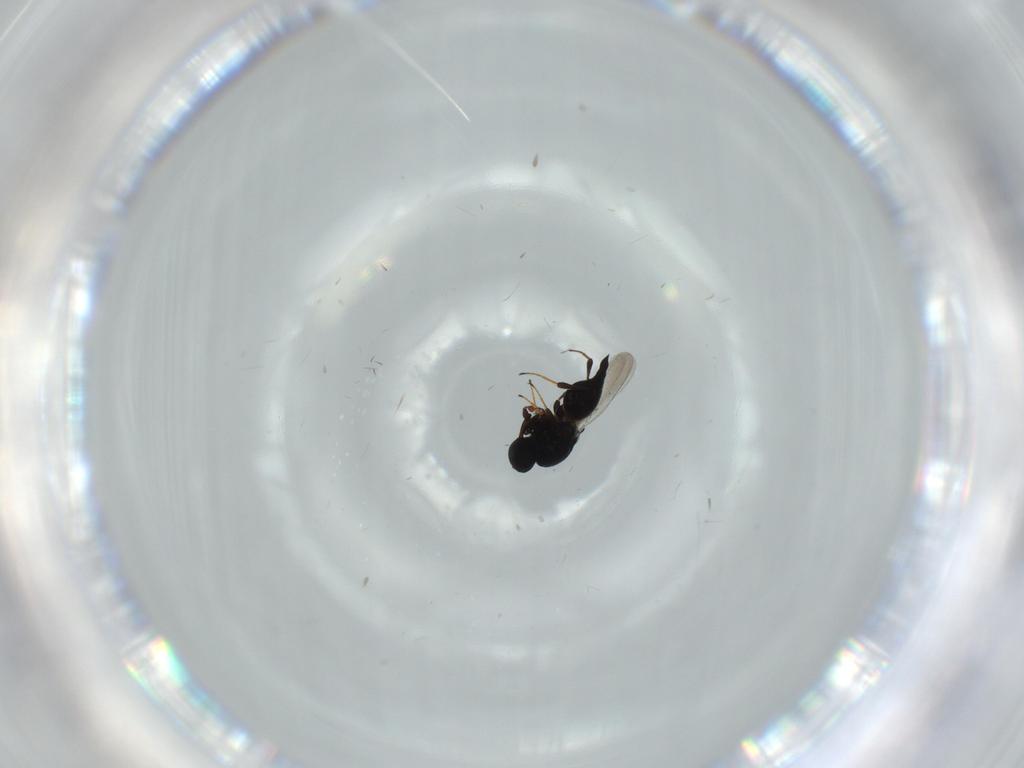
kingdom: Animalia
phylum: Arthropoda
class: Insecta
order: Hymenoptera
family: Platygastridae
